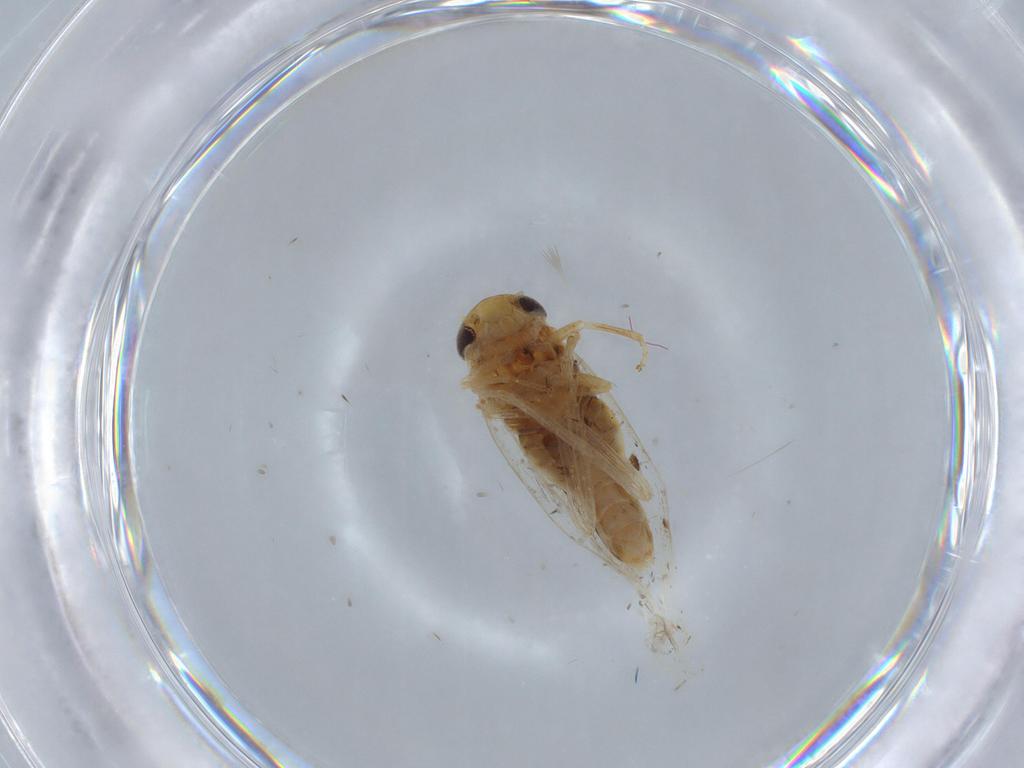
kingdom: Animalia
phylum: Arthropoda
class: Insecta
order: Hemiptera
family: Cicadellidae
